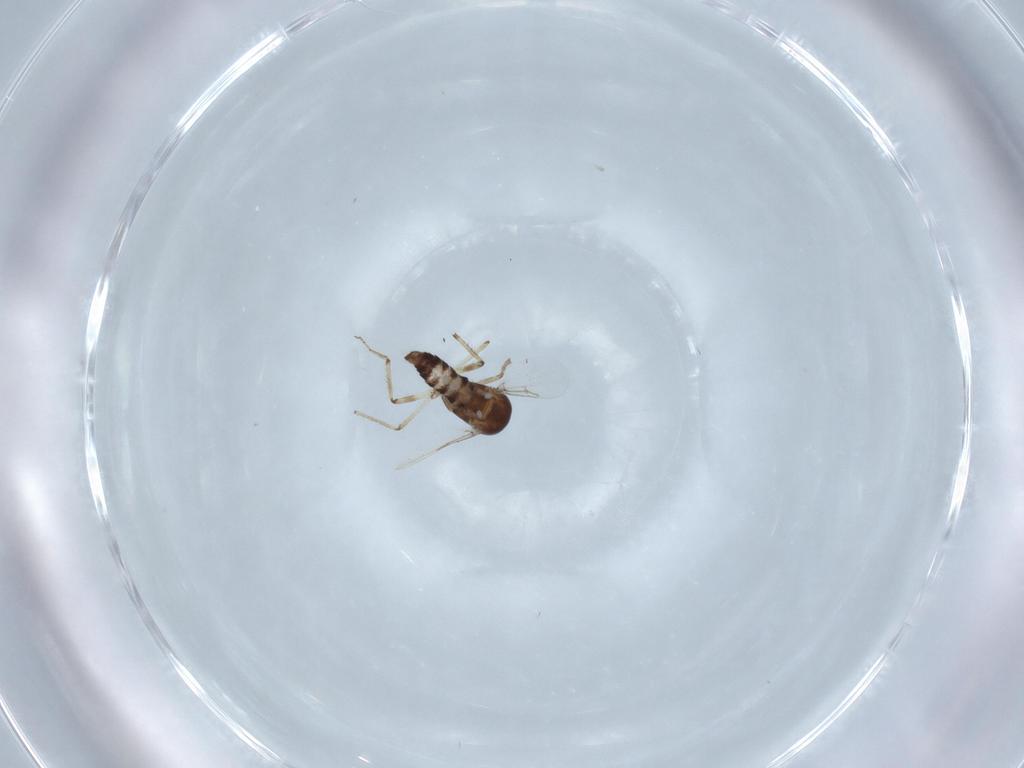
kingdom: Animalia
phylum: Arthropoda
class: Insecta
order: Diptera
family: Ceratopogonidae
